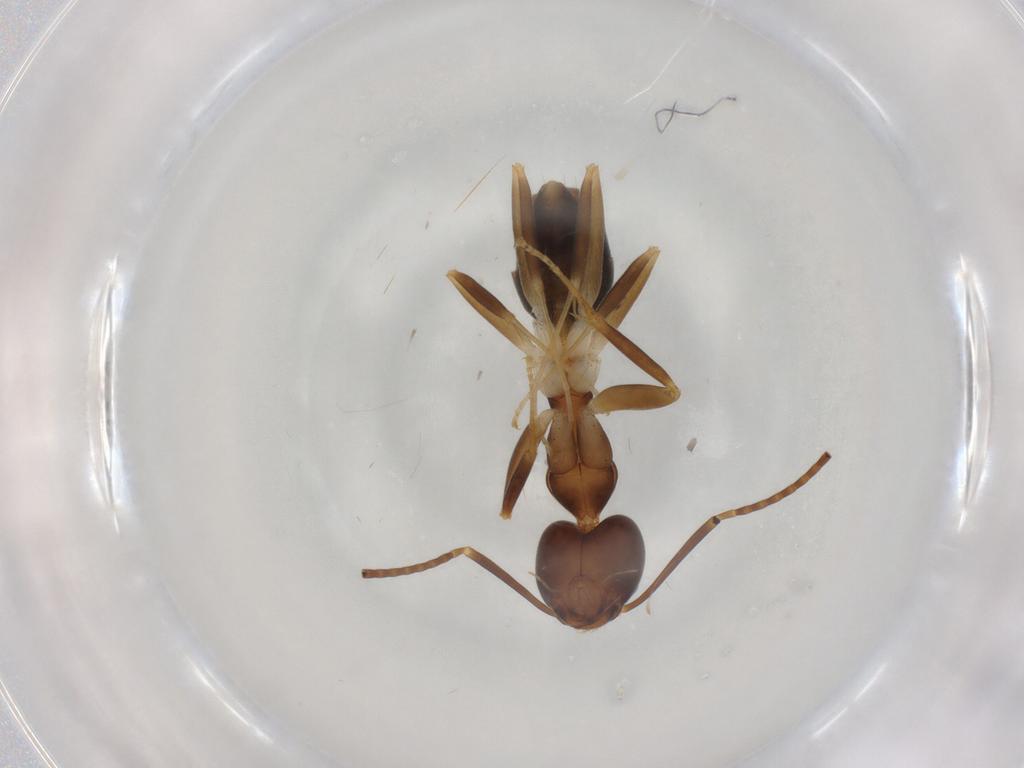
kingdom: Animalia
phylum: Arthropoda
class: Insecta
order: Hymenoptera
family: Formicidae
